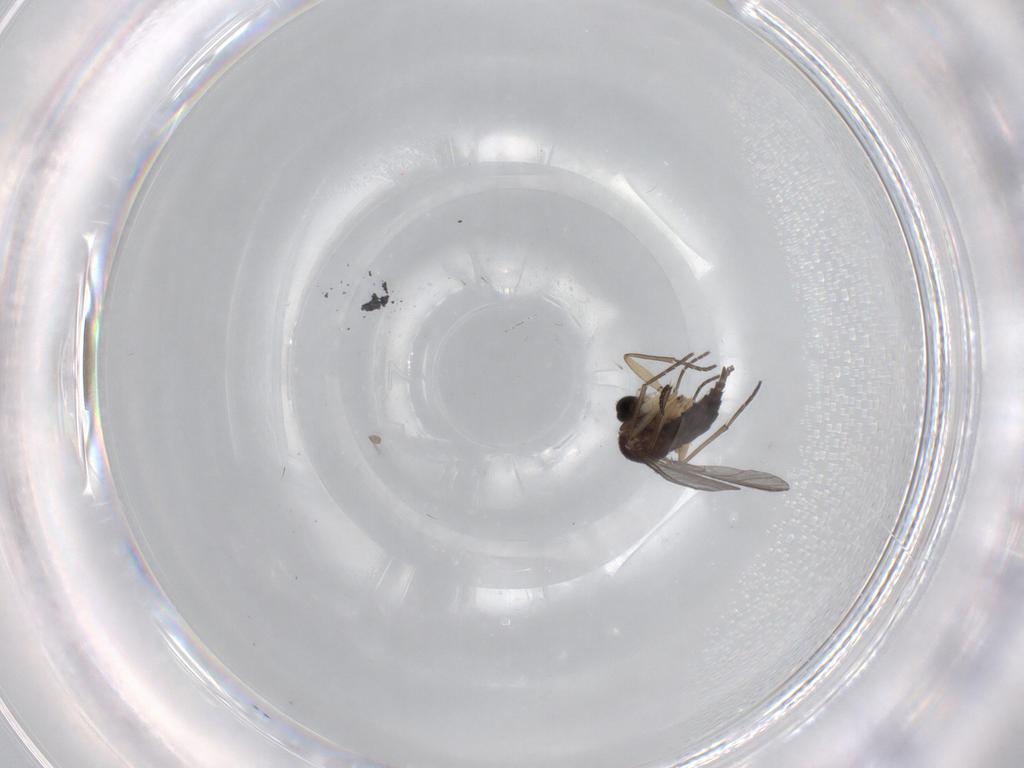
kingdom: Animalia
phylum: Arthropoda
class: Insecta
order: Diptera
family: Sciaridae
